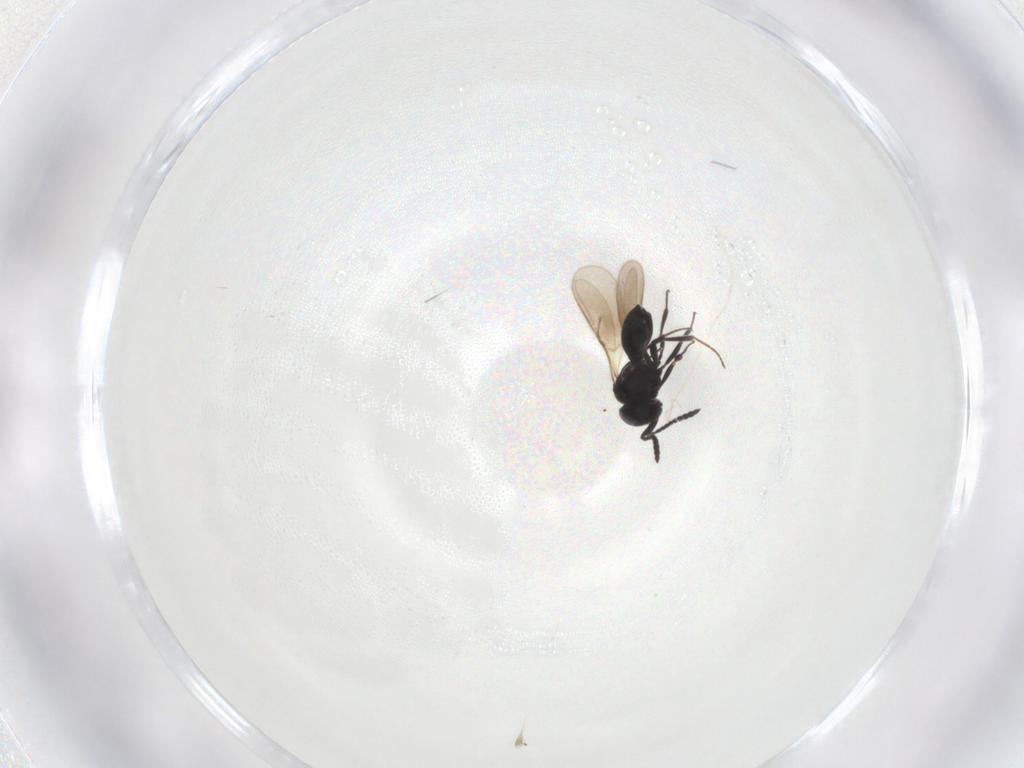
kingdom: Animalia
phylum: Arthropoda
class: Insecta
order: Hymenoptera
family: Scelionidae
